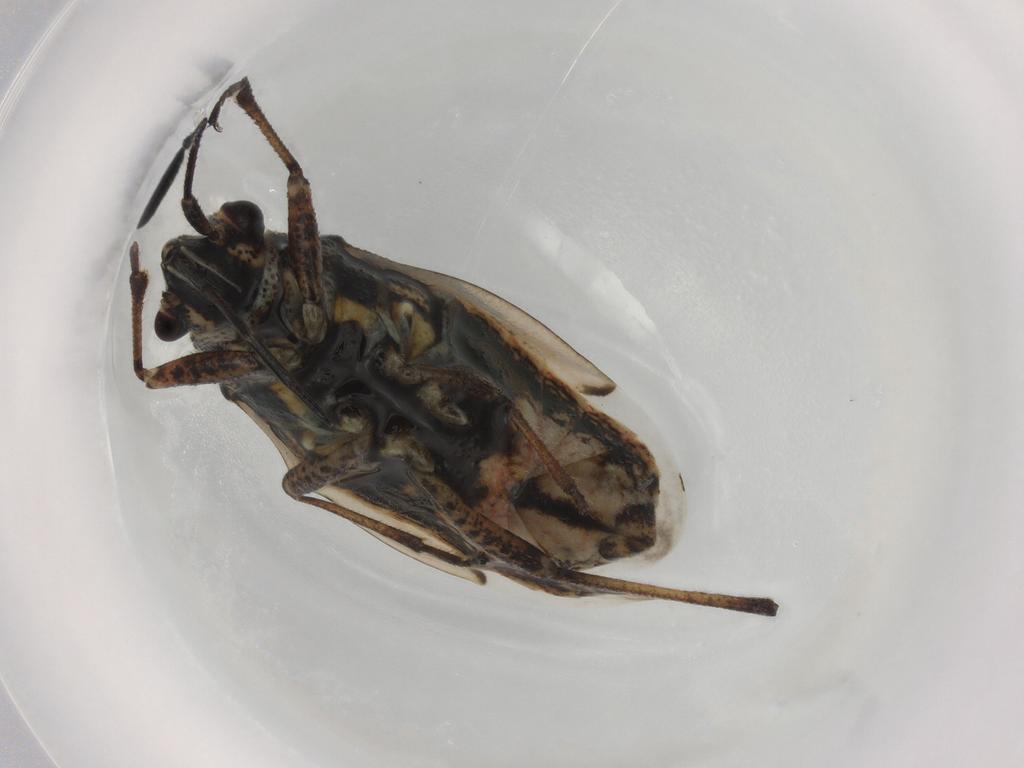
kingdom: Animalia
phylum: Arthropoda
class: Insecta
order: Hemiptera
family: Lygaeidae
